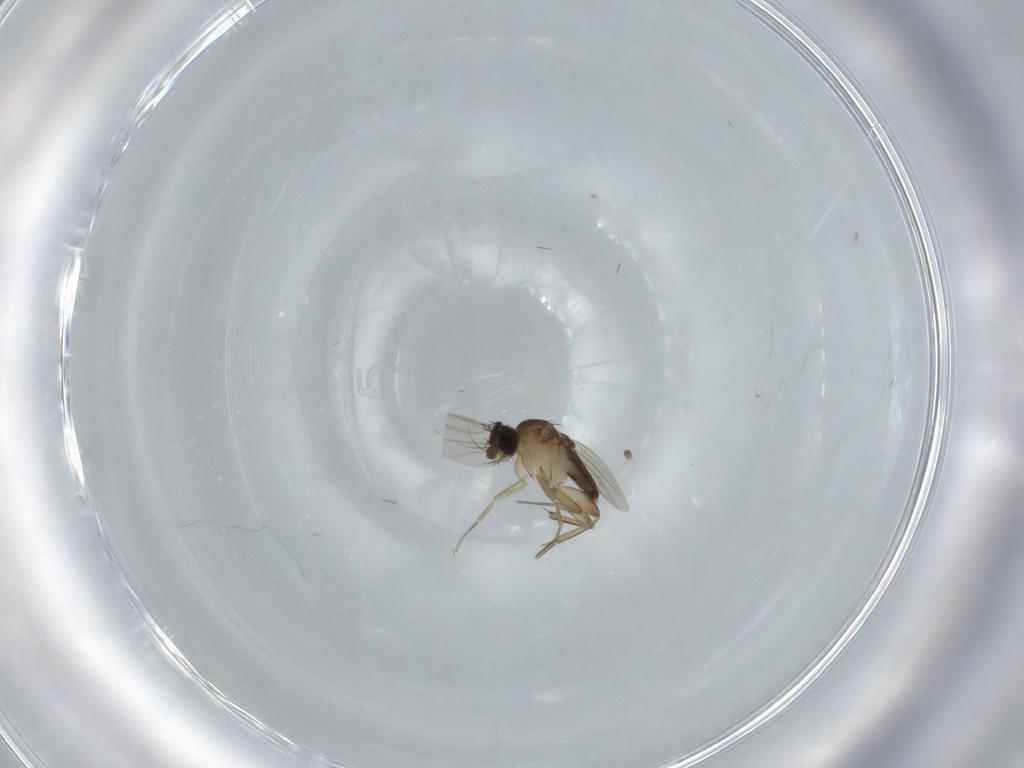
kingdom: Animalia
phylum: Arthropoda
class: Insecta
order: Diptera
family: Phoridae
